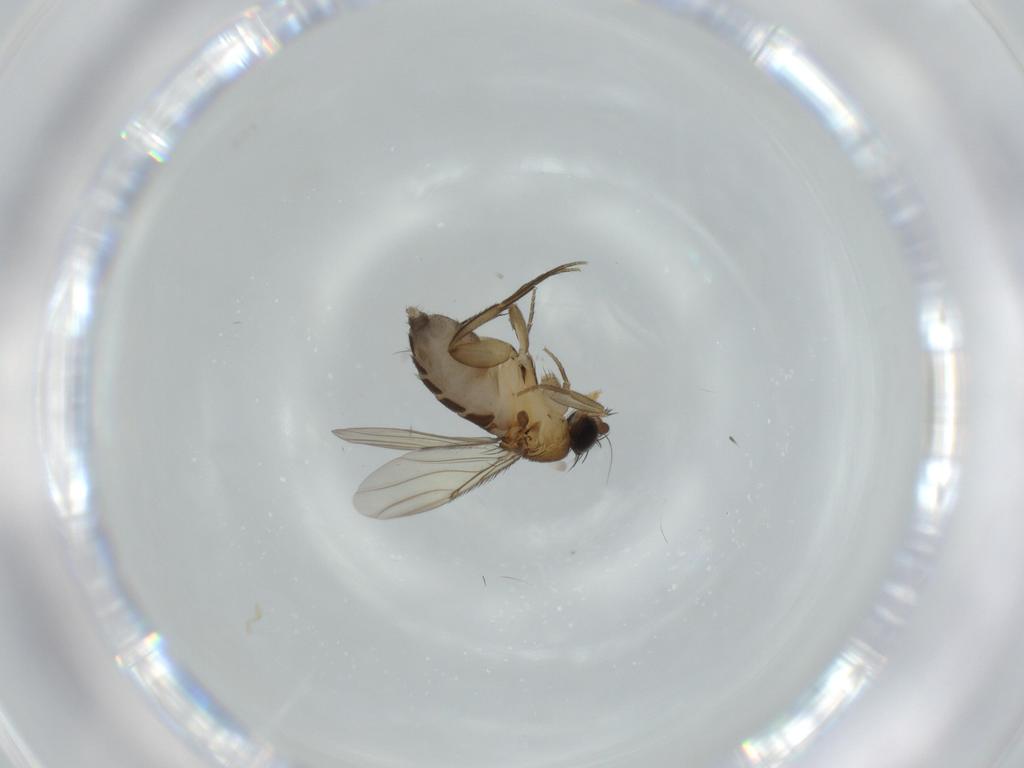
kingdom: Animalia
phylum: Arthropoda
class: Insecta
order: Diptera
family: Phoridae
